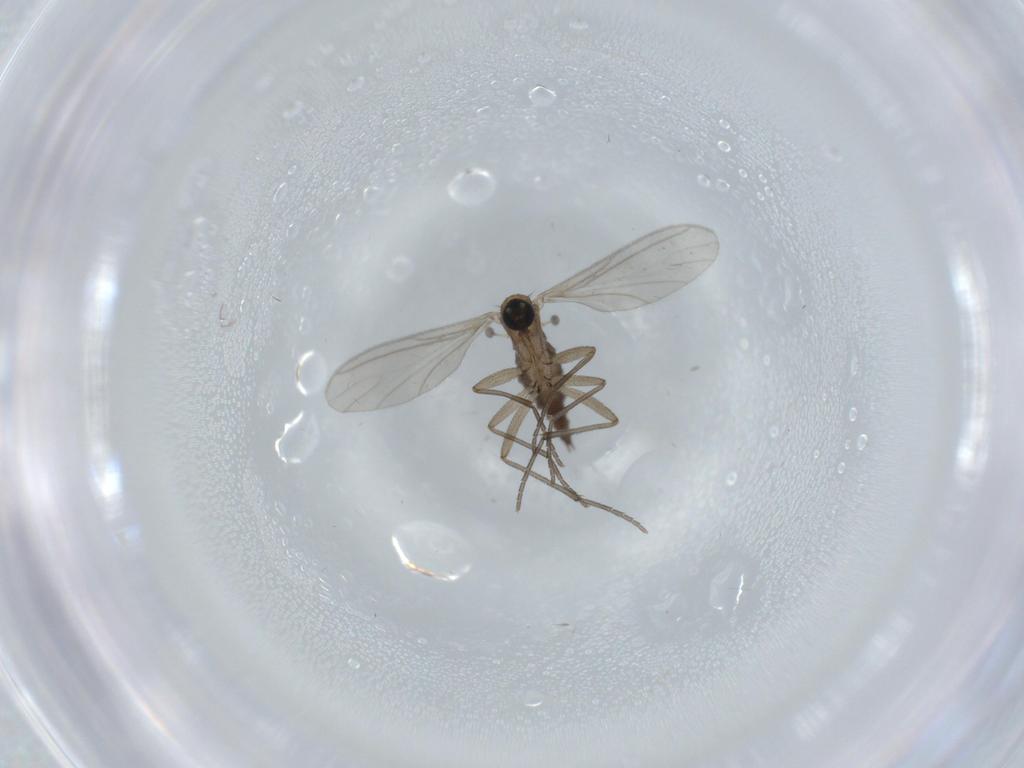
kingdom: Animalia
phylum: Arthropoda
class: Insecta
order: Diptera
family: Sciaridae
